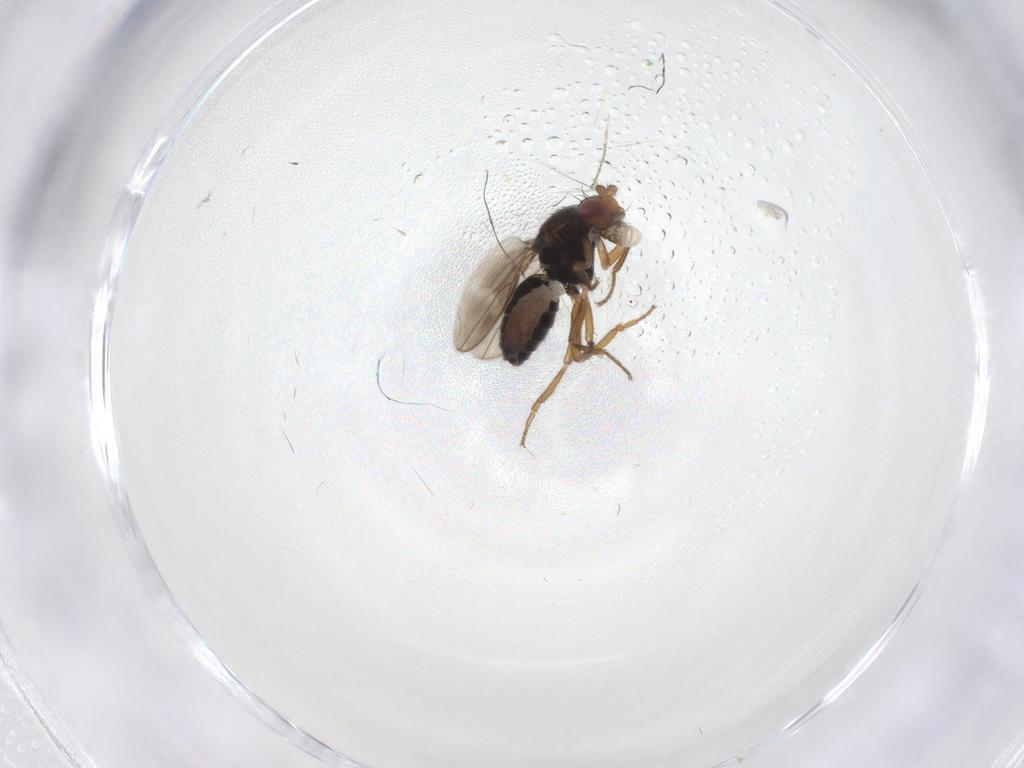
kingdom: Animalia
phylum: Arthropoda
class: Insecta
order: Diptera
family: Sphaeroceridae
